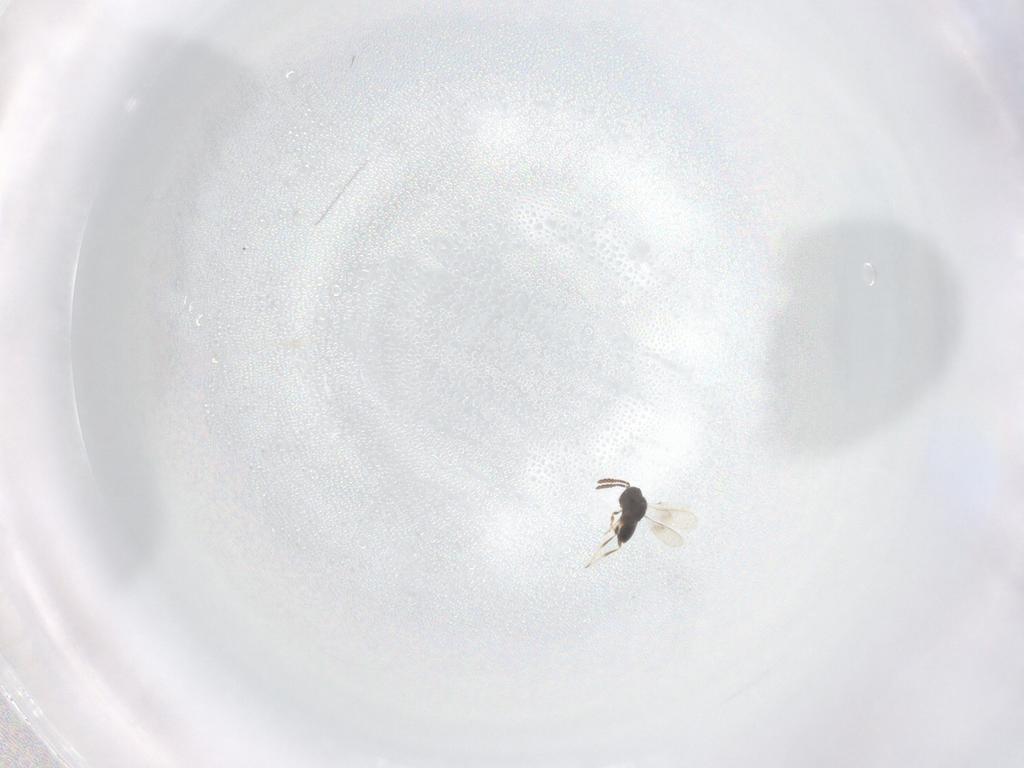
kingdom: Animalia
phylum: Arthropoda
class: Insecta
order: Hymenoptera
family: Scelionidae
